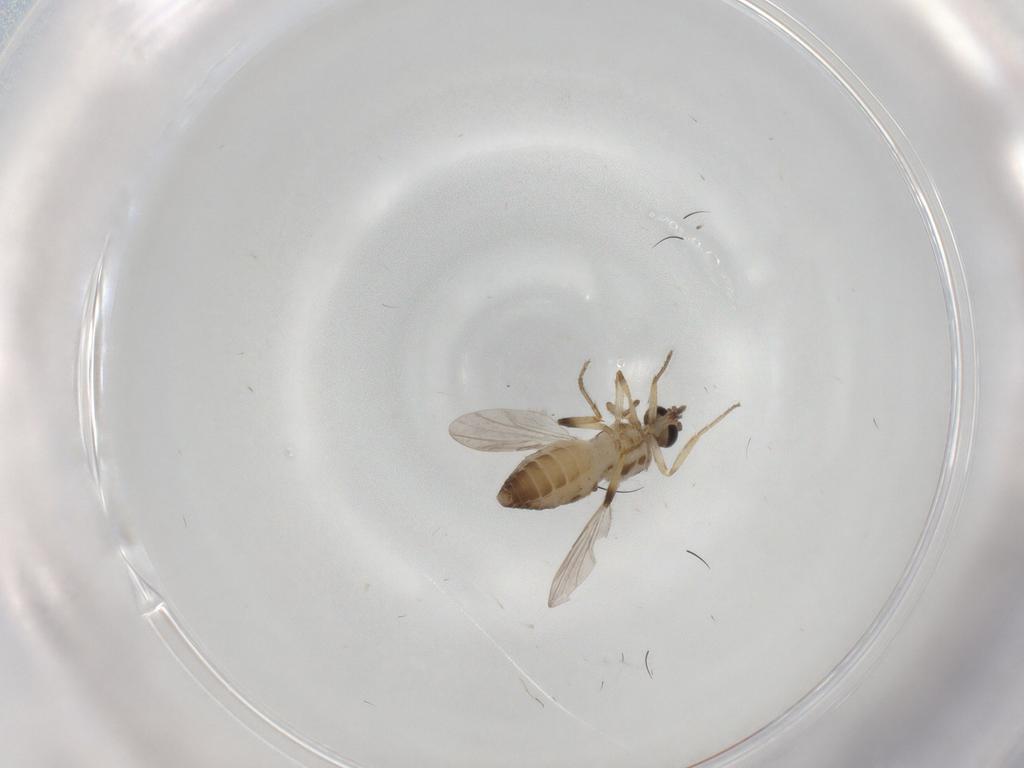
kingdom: Animalia
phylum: Arthropoda
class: Insecta
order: Diptera
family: Ceratopogonidae
